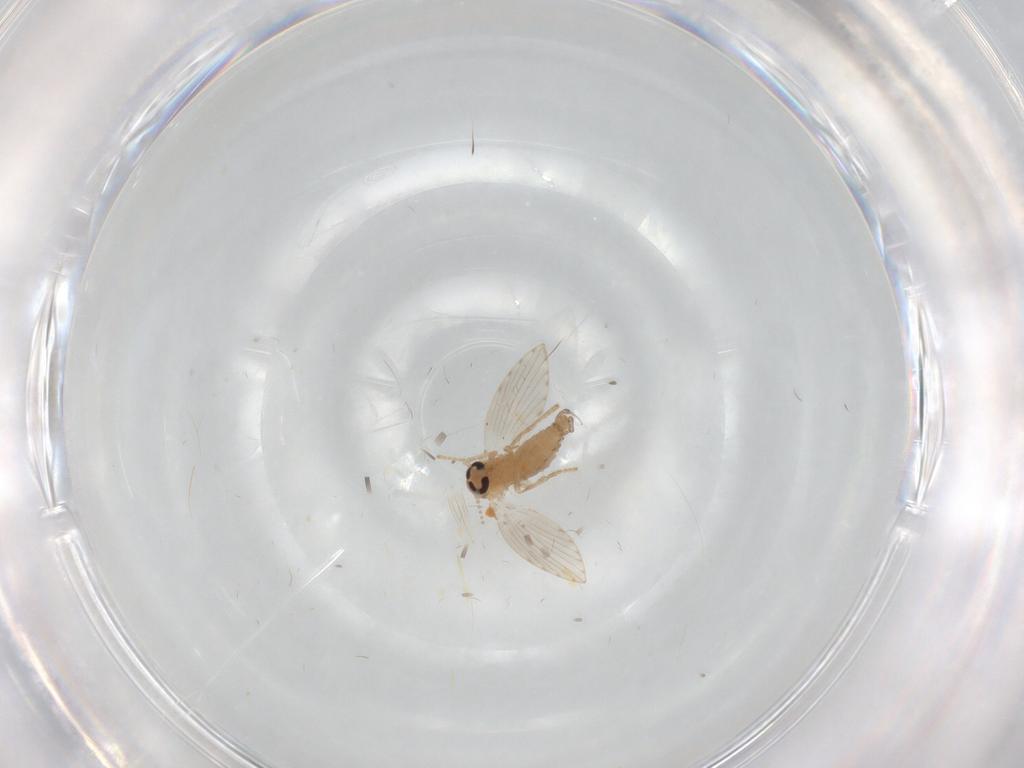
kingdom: Animalia
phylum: Arthropoda
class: Insecta
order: Diptera
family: Psychodidae
